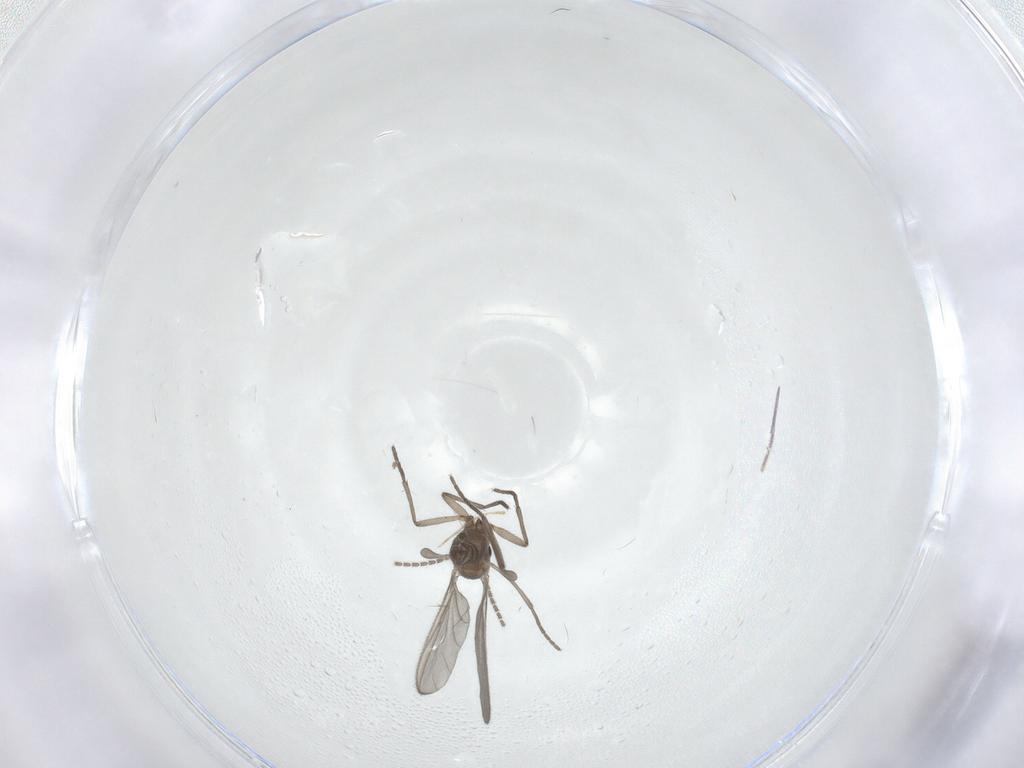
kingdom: Animalia
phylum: Arthropoda
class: Insecta
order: Diptera
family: Sciaridae
